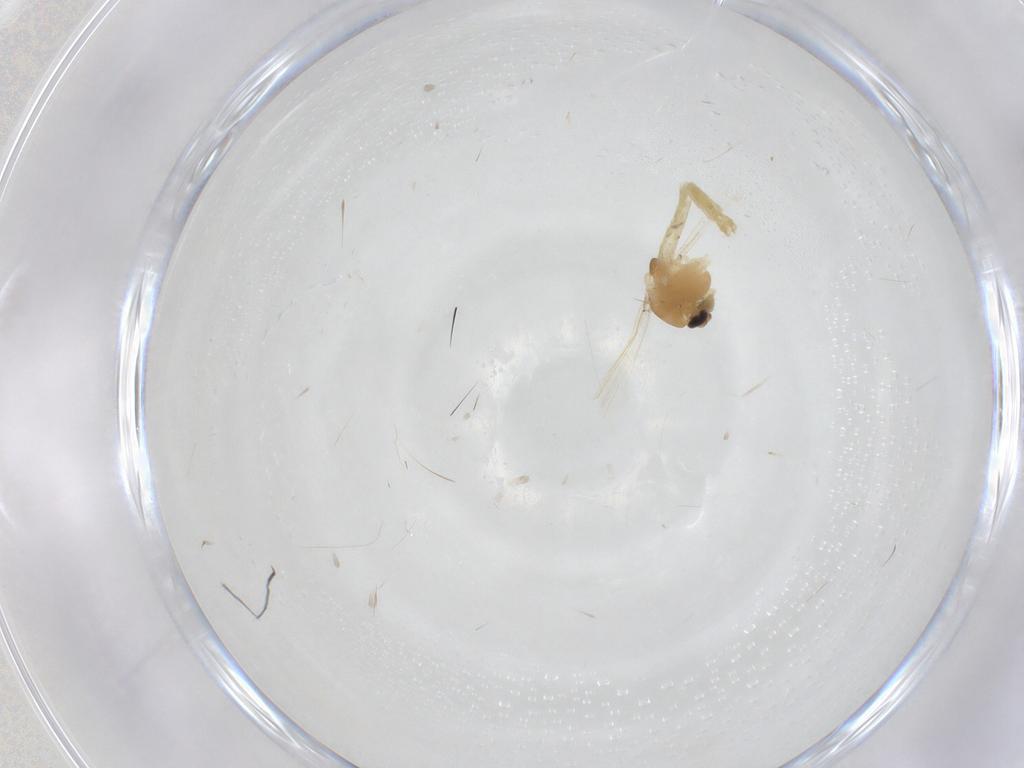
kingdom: Animalia
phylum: Arthropoda
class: Insecta
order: Diptera
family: Chironomidae
